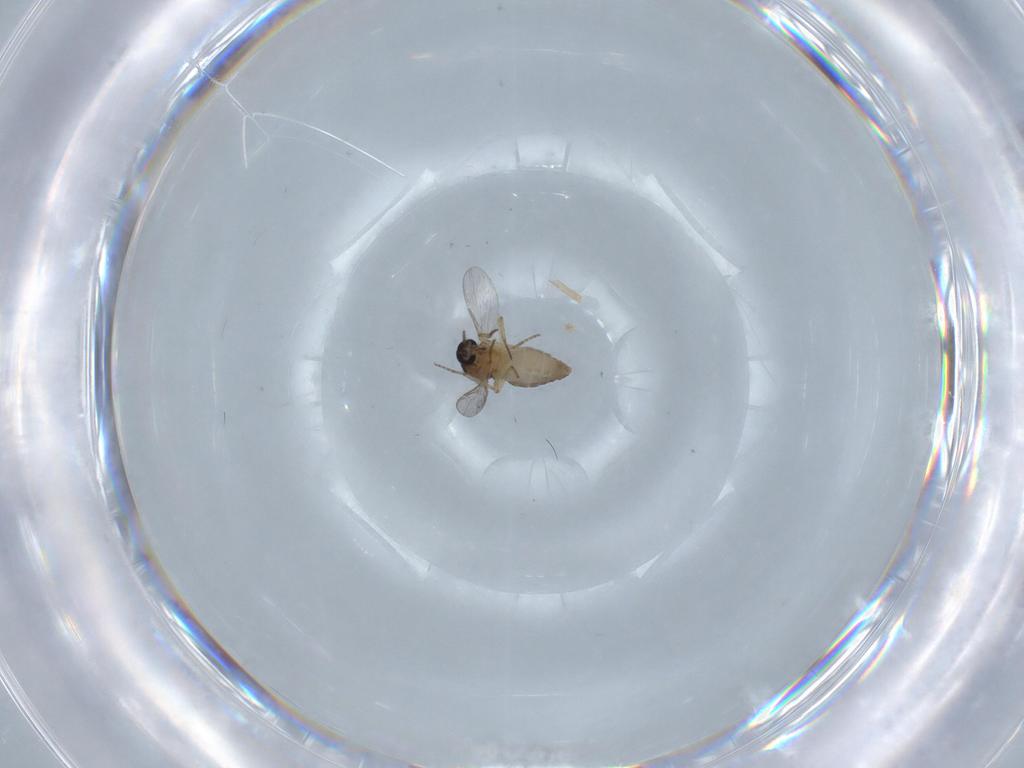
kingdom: Animalia
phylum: Arthropoda
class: Insecta
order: Diptera
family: Ceratopogonidae
